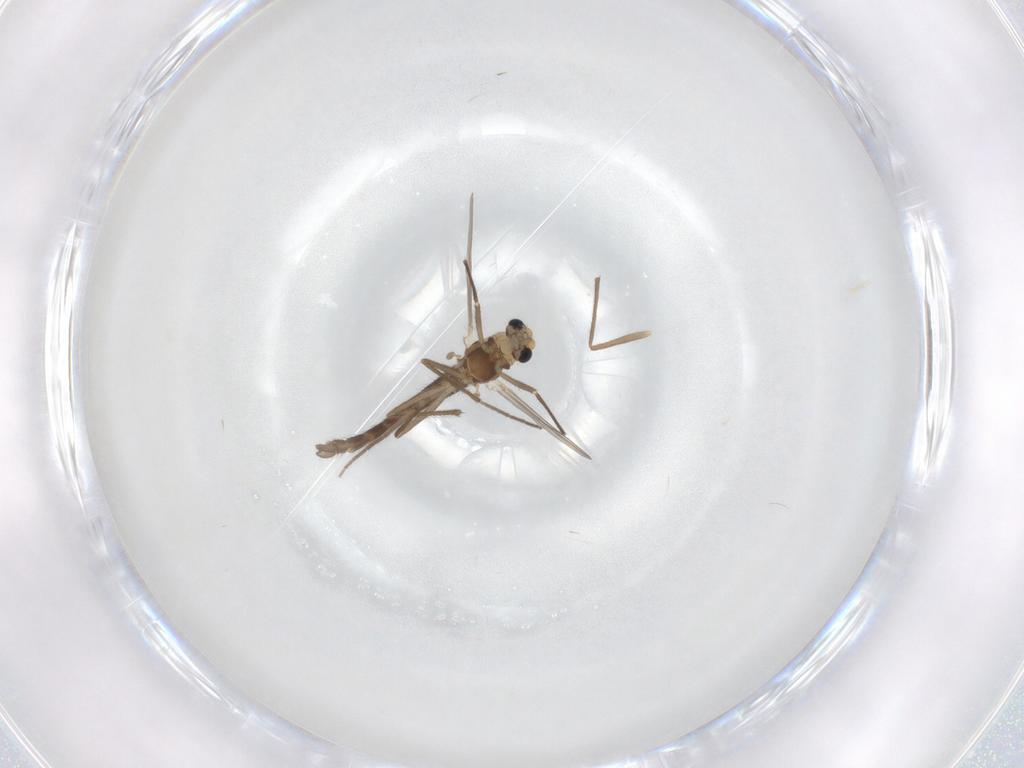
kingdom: Animalia
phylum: Arthropoda
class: Insecta
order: Diptera
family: Chironomidae
